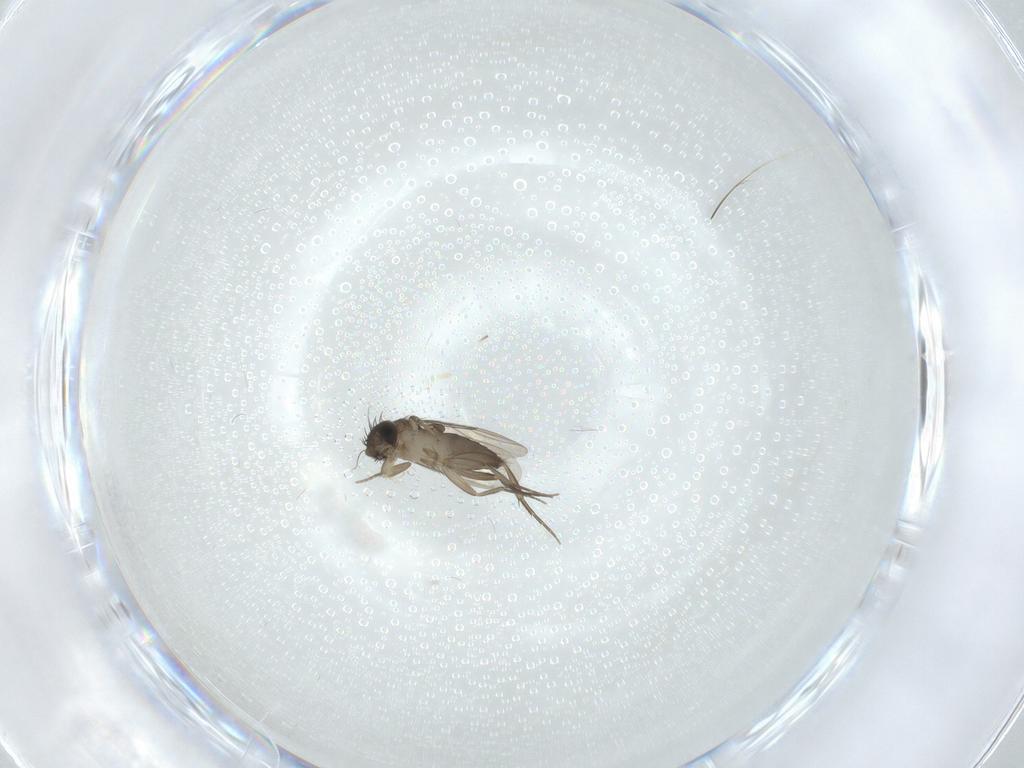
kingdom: Animalia
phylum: Arthropoda
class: Insecta
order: Diptera
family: Phoridae
